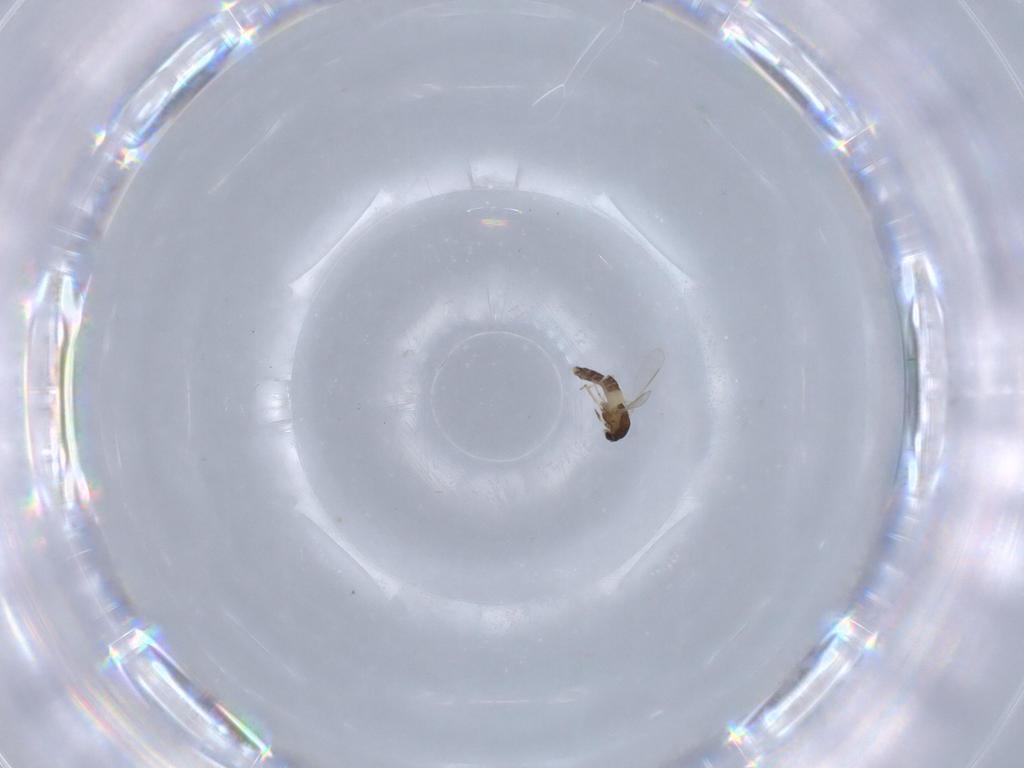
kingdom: Animalia
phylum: Arthropoda
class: Insecta
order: Diptera
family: Chironomidae
